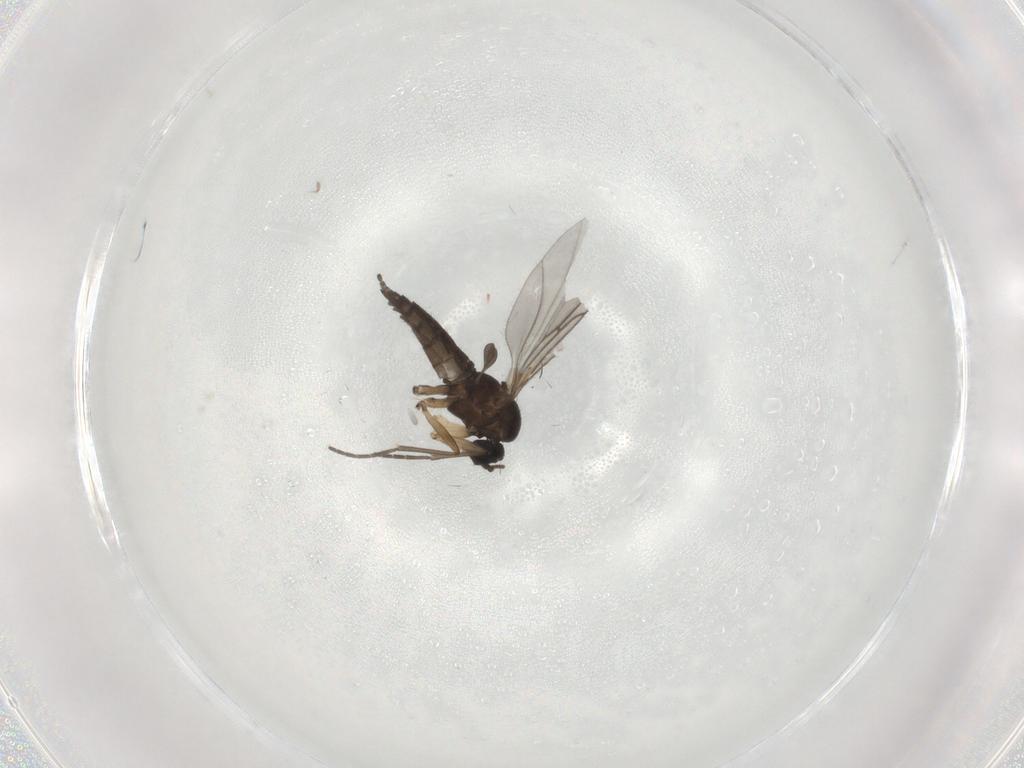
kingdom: Animalia
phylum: Arthropoda
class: Insecta
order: Diptera
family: Sciaridae
